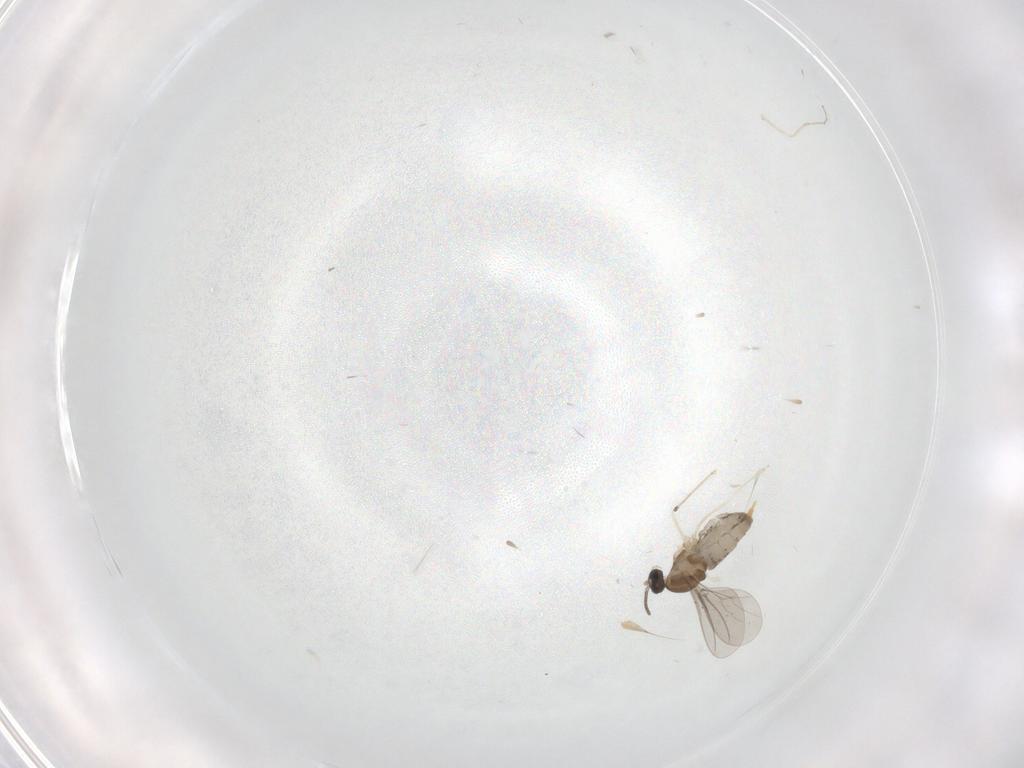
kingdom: Animalia
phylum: Arthropoda
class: Insecta
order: Diptera
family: Cecidomyiidae
